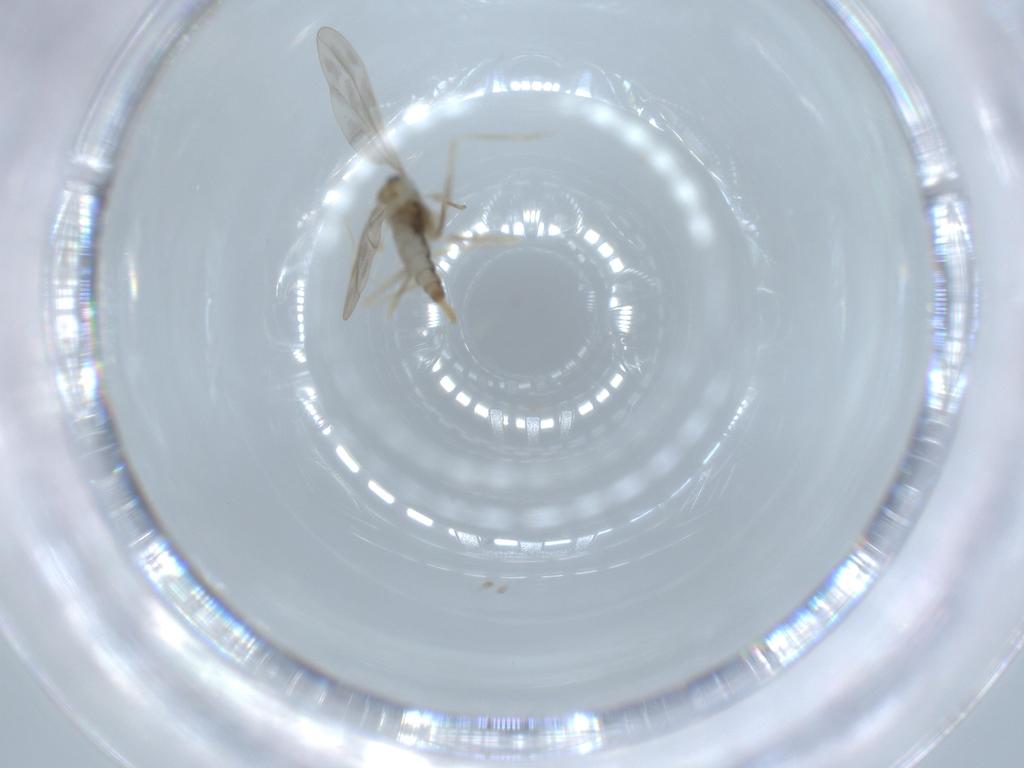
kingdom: Animalia
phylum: Arthropoda
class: Insecta
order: Diptera
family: Cecidomyiidae
